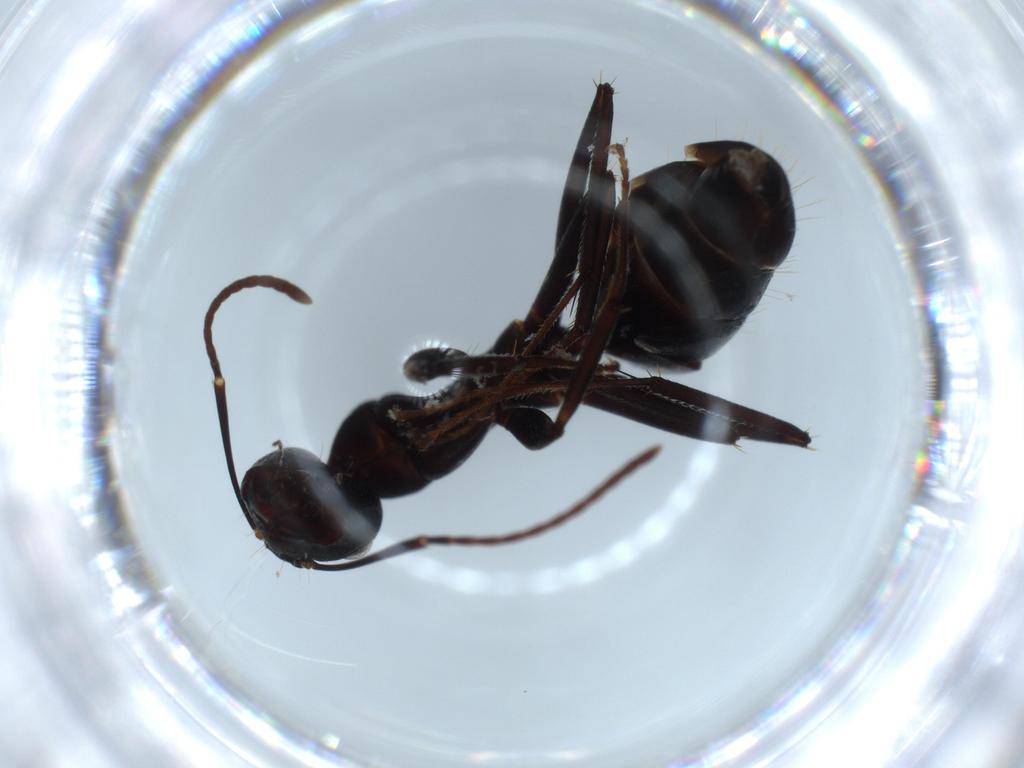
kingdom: Animalia
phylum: Arthropoda
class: Insecta
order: Hymenoptera
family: Formicidae
